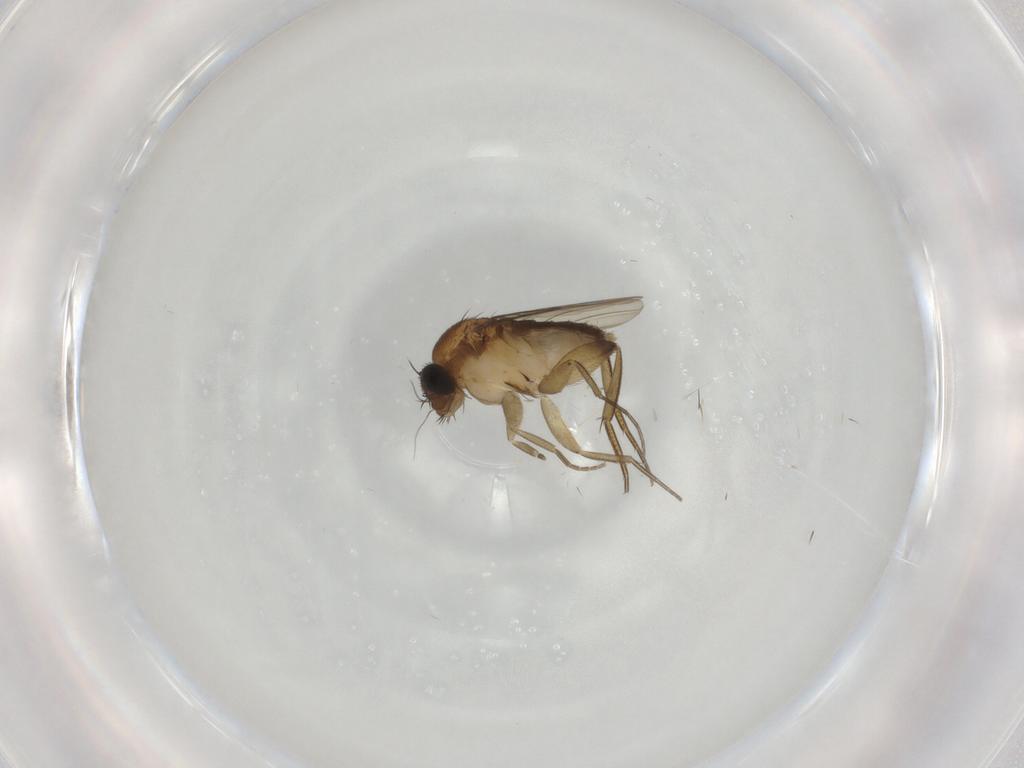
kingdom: Animalia
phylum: Arthropoda
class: Insecta
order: Diptera
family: Phoridae
